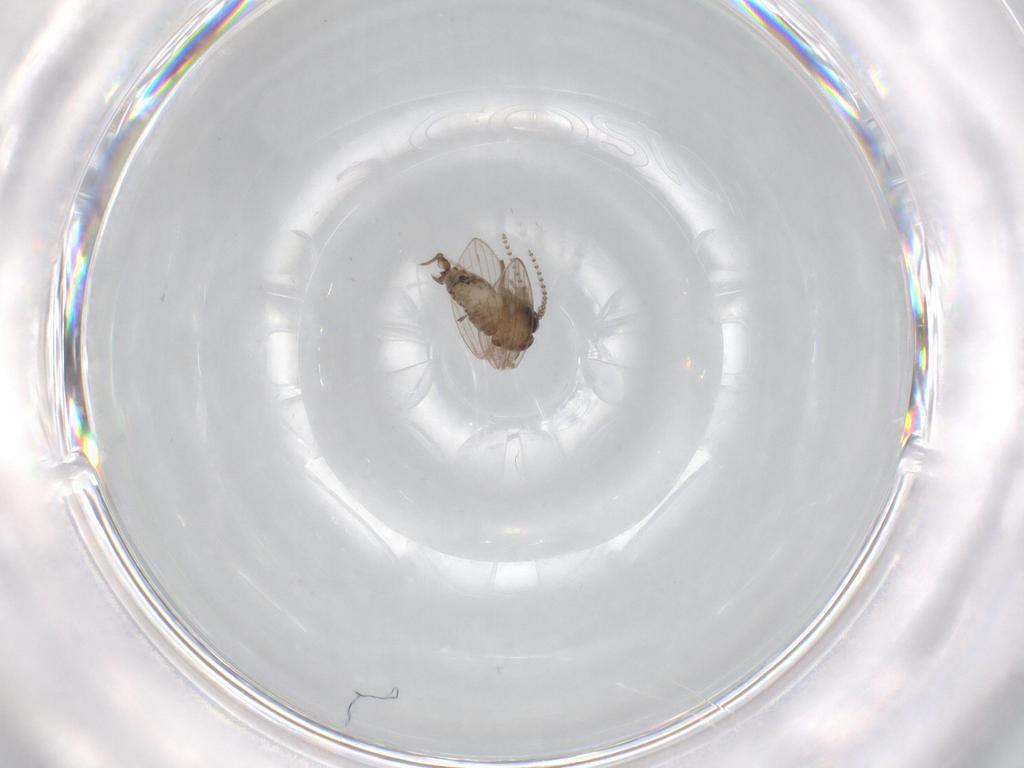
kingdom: Animalia
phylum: Arthropoda
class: Insecta
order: Diptera
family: Psychodidae
